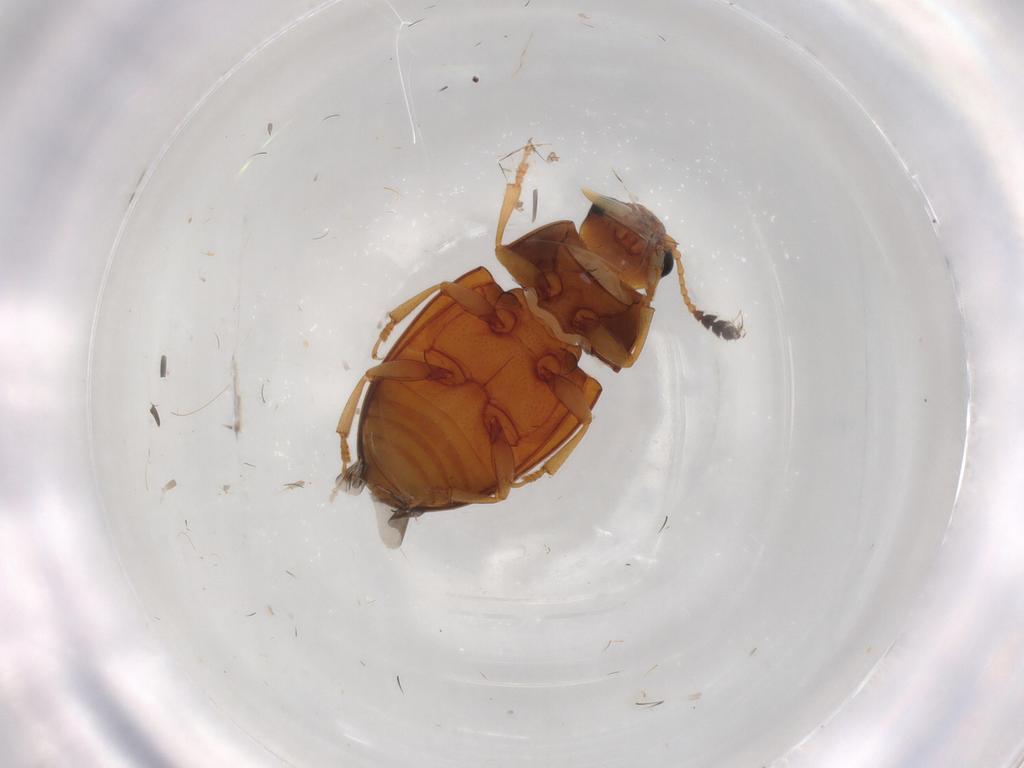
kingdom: Animalia
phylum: Arthropoda
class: Insecta
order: Coleoptera
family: Erotylidae
